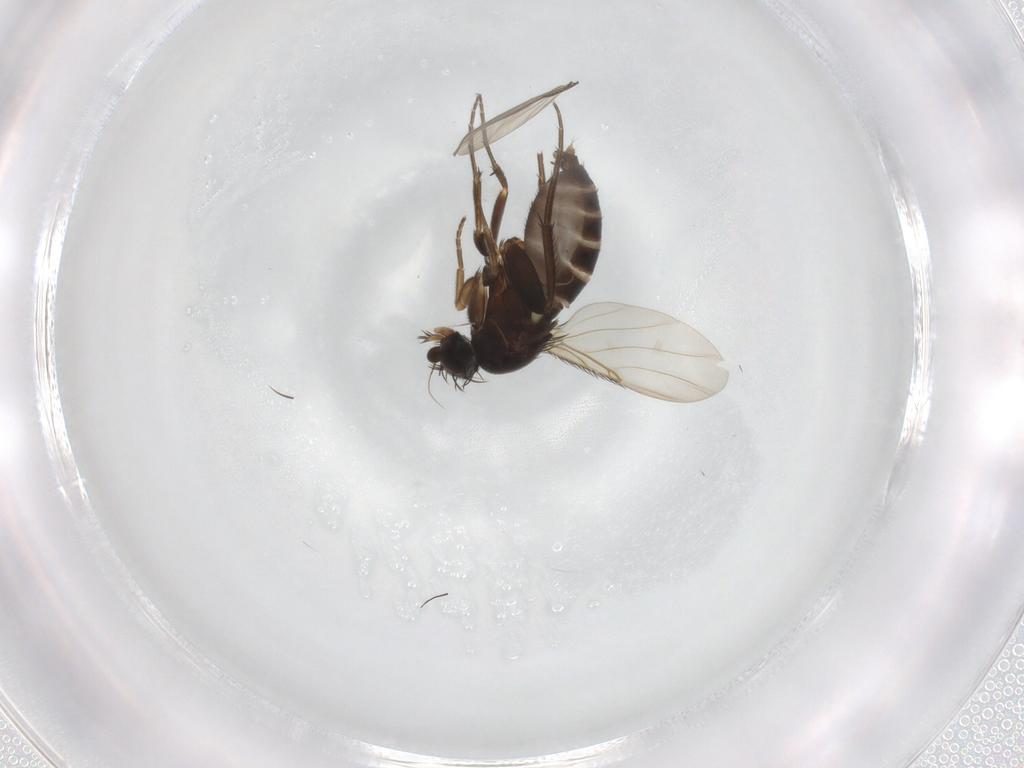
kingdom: Animalia
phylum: Arthropoda
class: Insecta
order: Diptera
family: Phoridae
